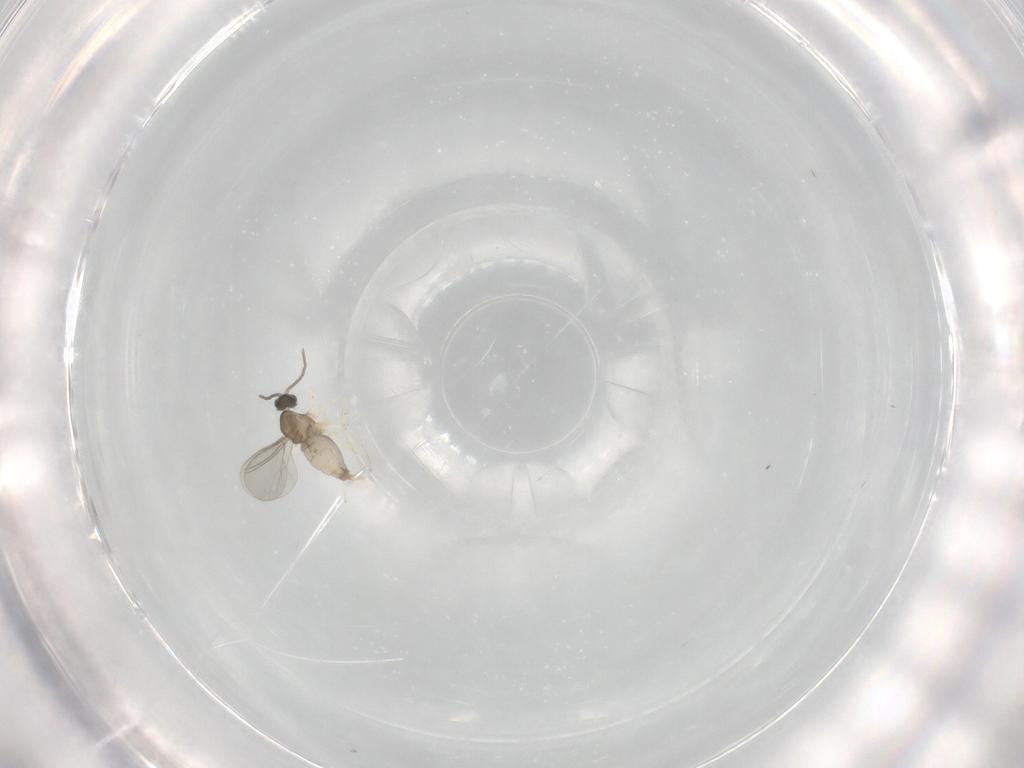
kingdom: Animalia
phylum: Arthropoda
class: Insecta
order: Diptera
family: Cecidomyiidae
